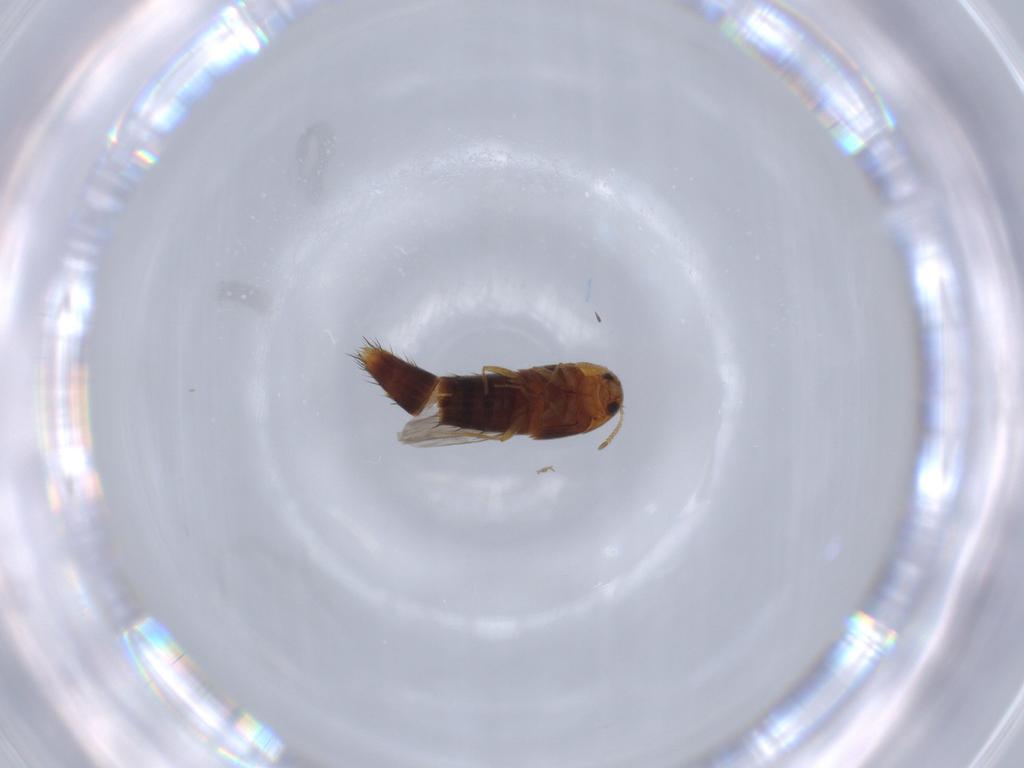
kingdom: Animalia
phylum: Arthropoda
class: Insecta
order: Coleoptera
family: Staphylinidae
